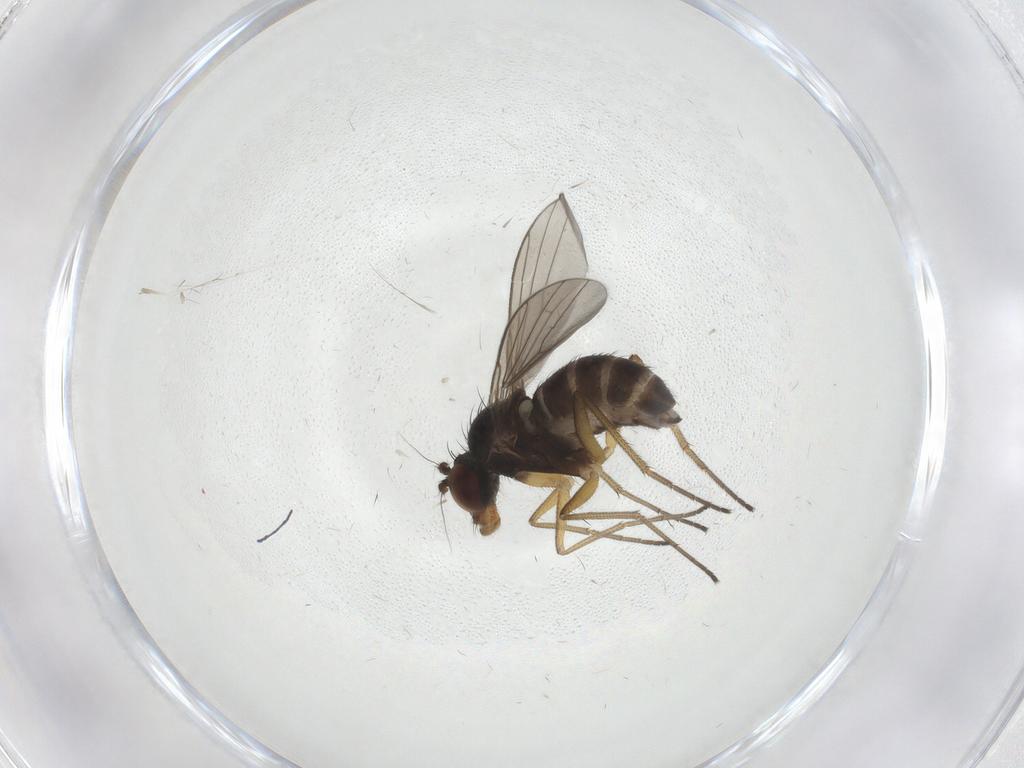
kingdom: Animalia
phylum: Arthropoda
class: Insecta
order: Diptera
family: Dolichopodidae
